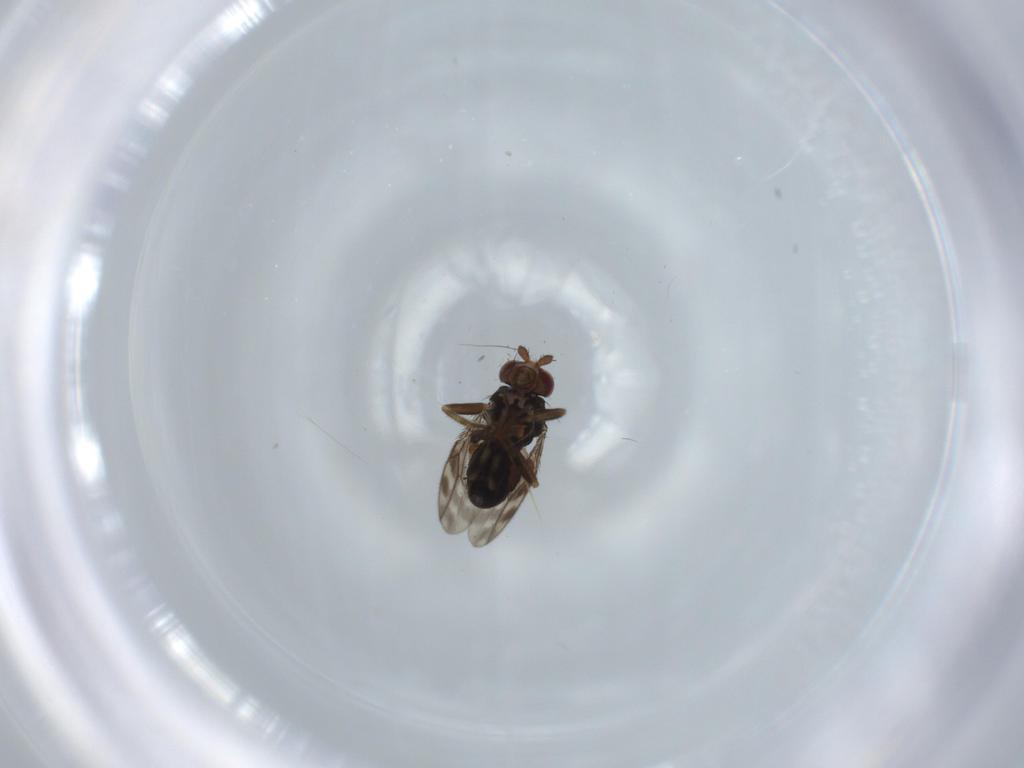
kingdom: Animalia
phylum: Arthropoda
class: Insecta
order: Diptera
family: Sphaeroceridae
